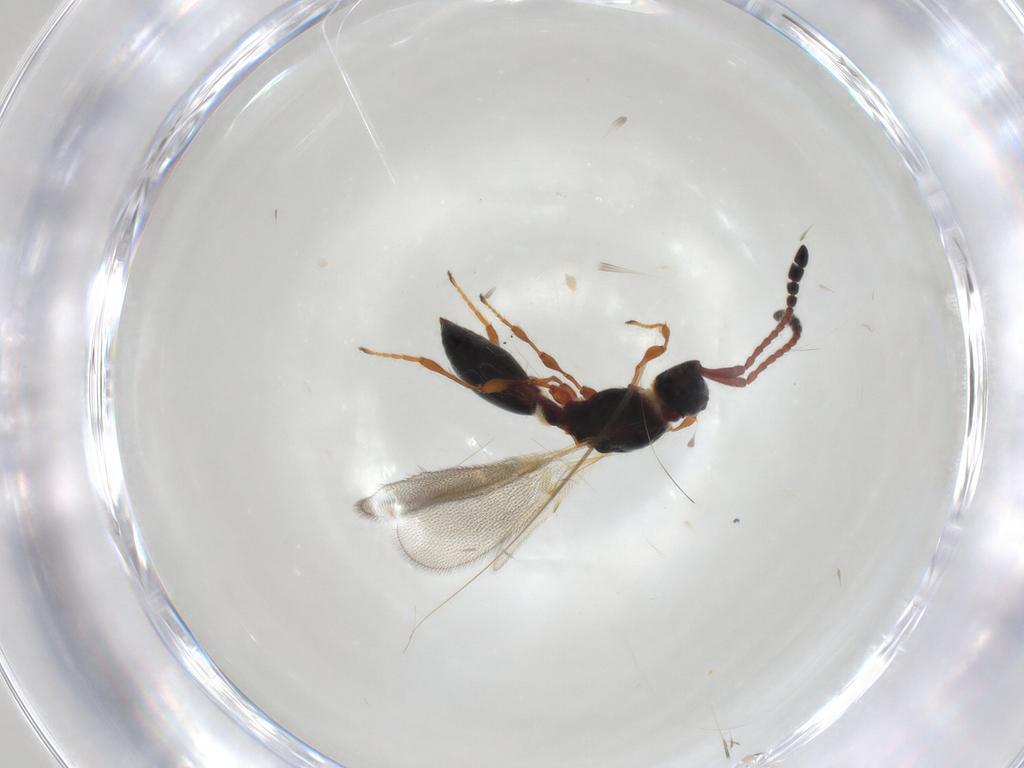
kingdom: Animalia
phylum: Arthropoda
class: Insecta
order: Hymenoptera
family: Diapriidae
